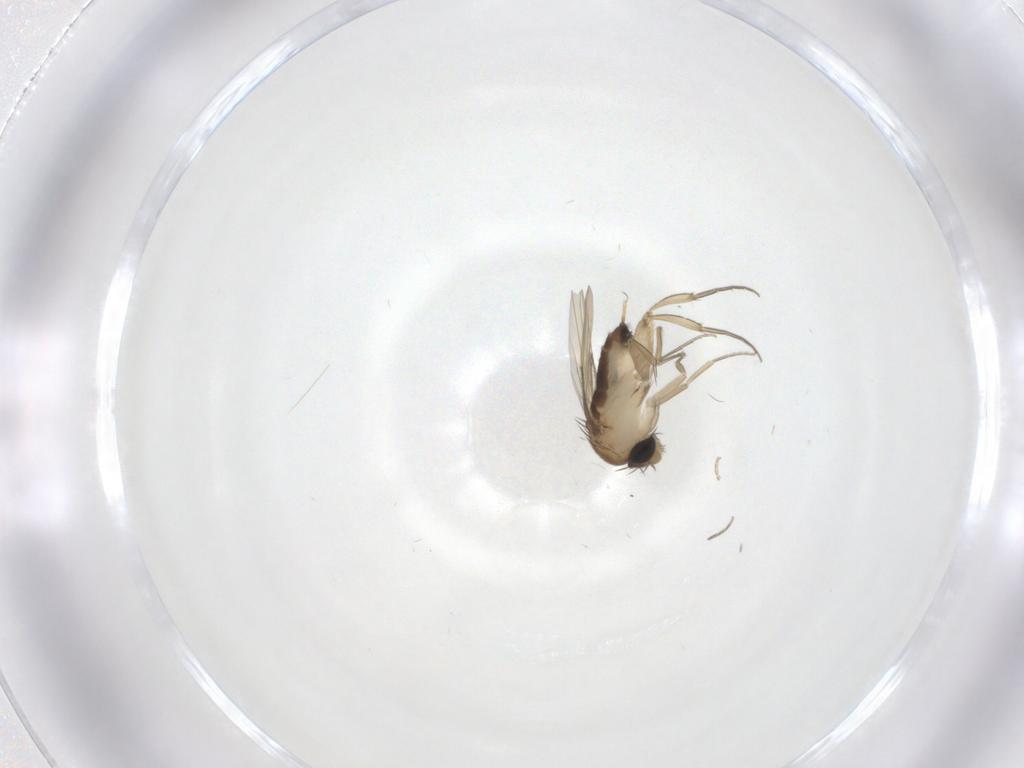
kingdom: Animalia
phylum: Arthropoda
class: Insecta
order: Diptera
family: Phoridae
